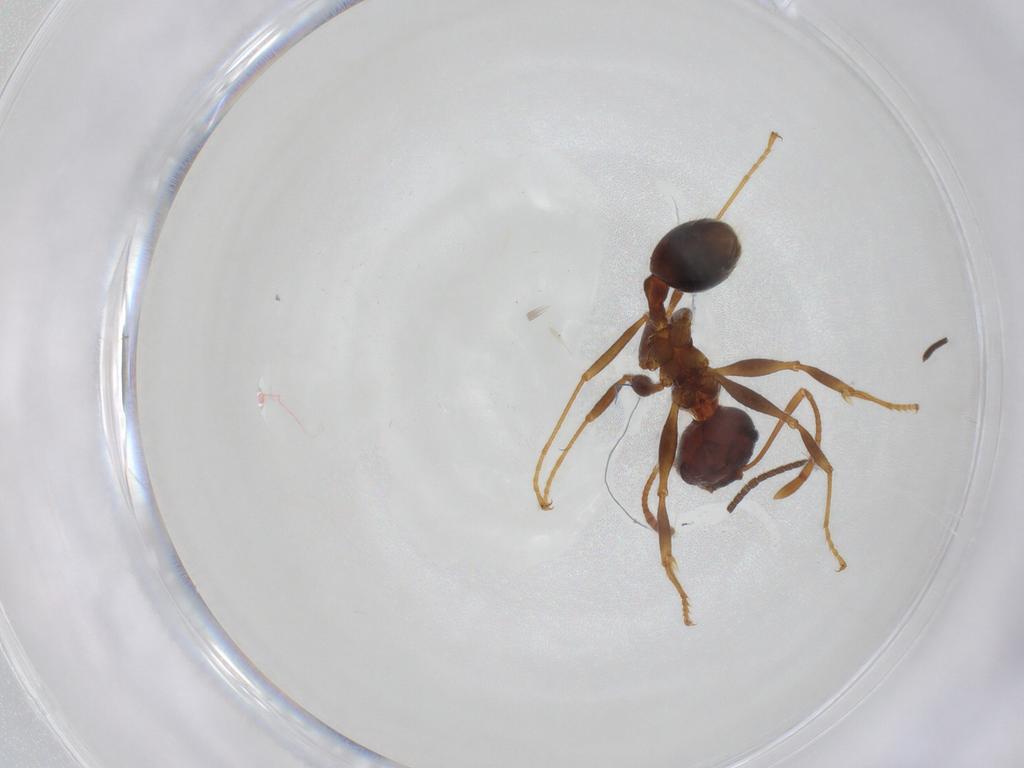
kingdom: Animalia
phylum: Arthropoda
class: Insecta
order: Hymenoptera
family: Braconidae
